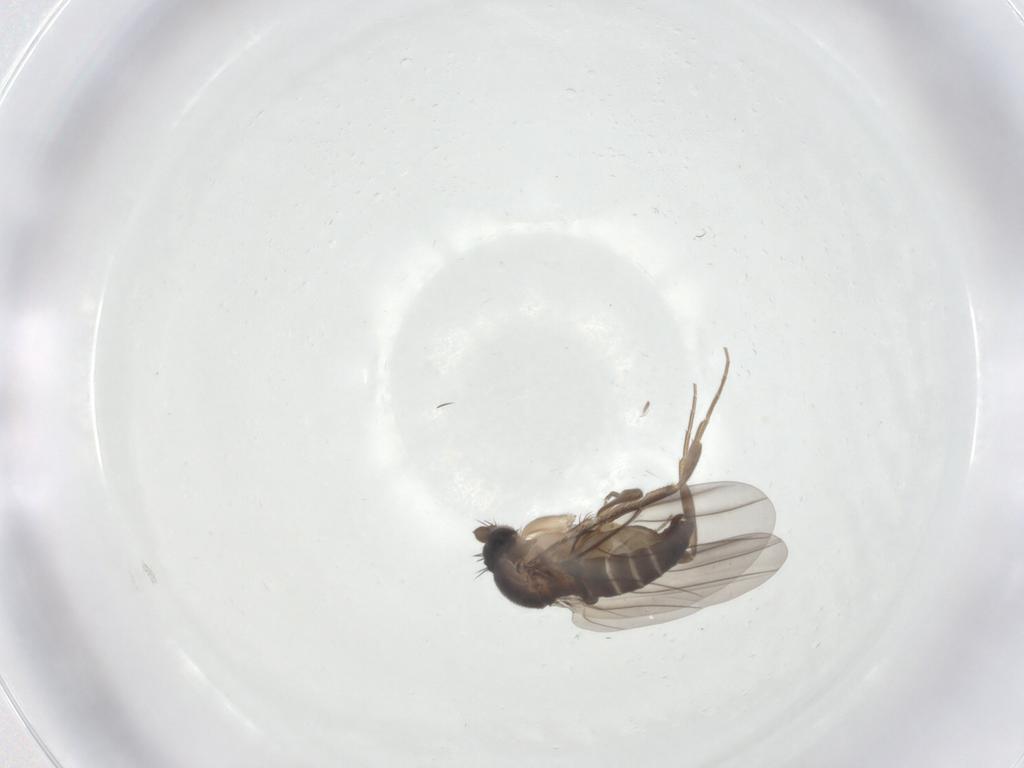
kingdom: Animalia
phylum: Arthropoda
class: Insecta
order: Diptera
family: Phoridae
